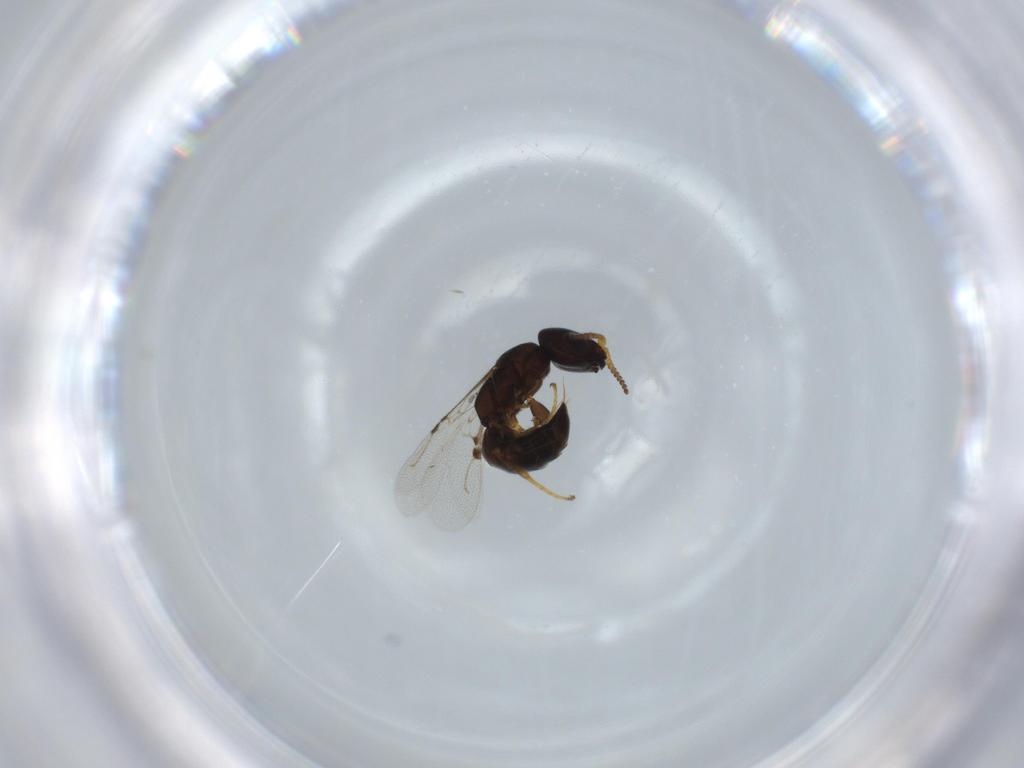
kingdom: Animalia
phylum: Arthropoda
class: Insecta
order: Hymenoptera
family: Bethylidae
